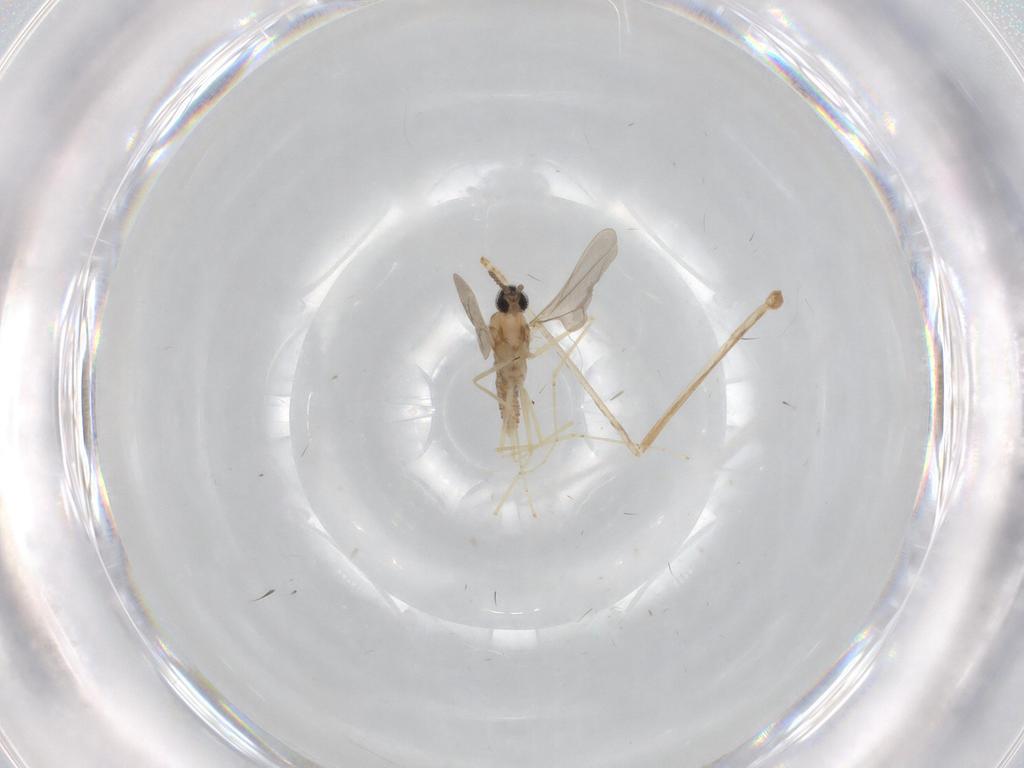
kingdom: Animalia
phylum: Arthropoda
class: Insecta
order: Diptera
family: Cecidomyiidae
